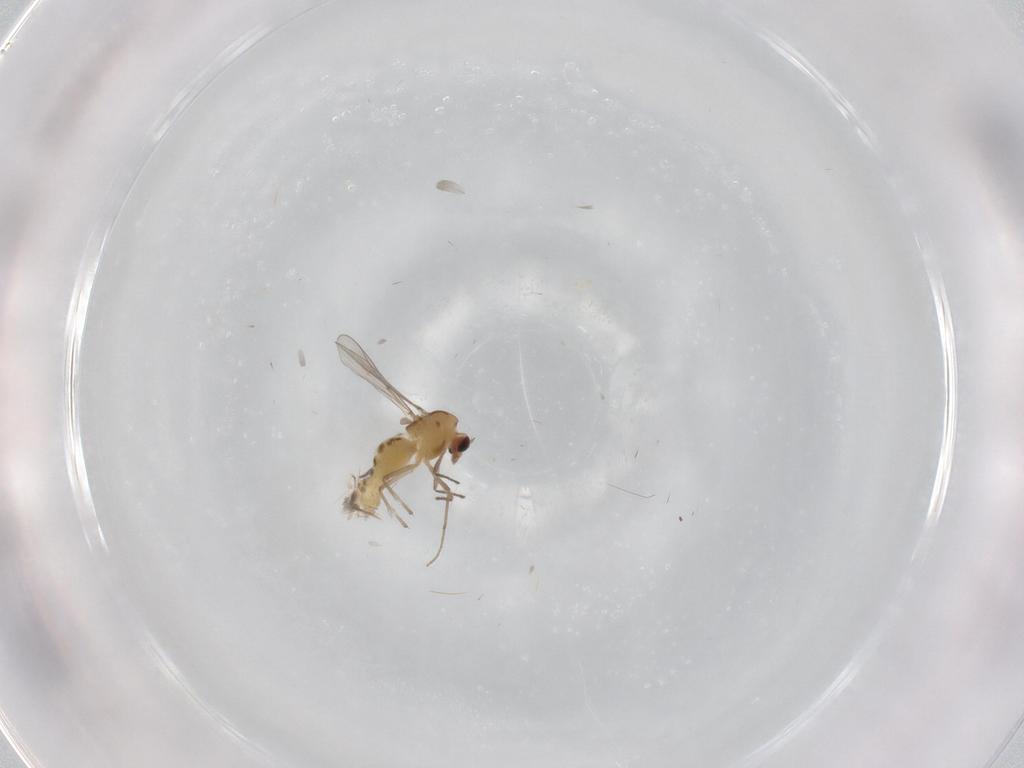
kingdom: Animalia
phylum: Arthropoda
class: Insecta
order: Diptera
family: Chironomidae
